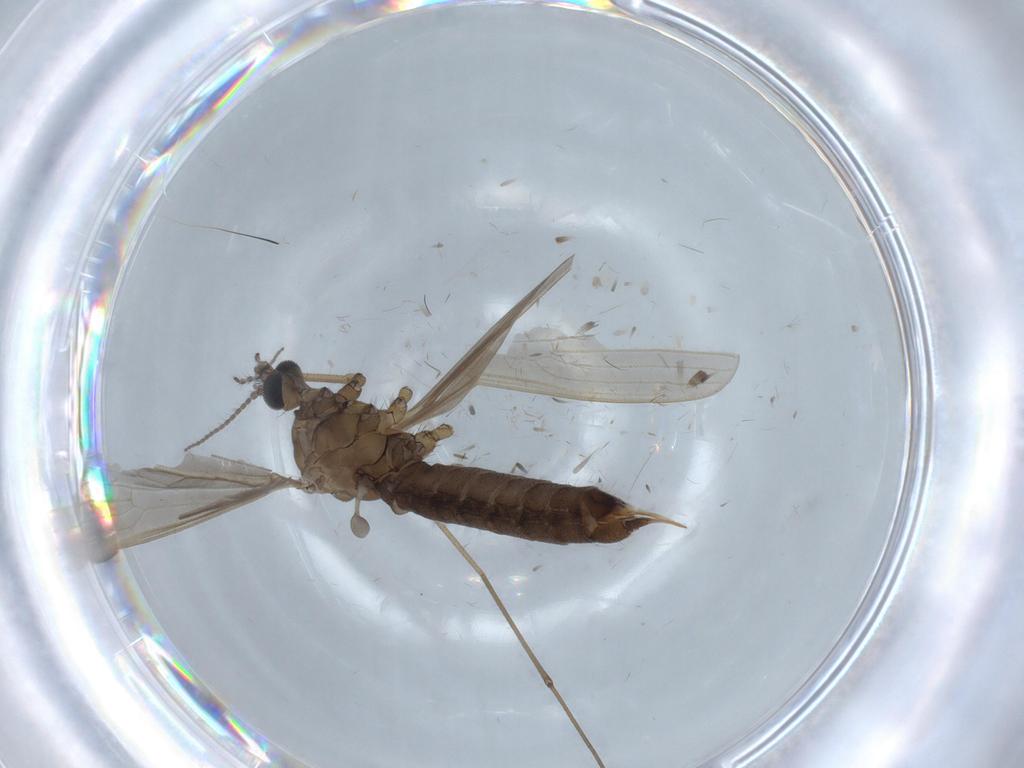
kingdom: Animalia
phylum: Arthropoda
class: Insecta
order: Diptera
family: Limoniidae
